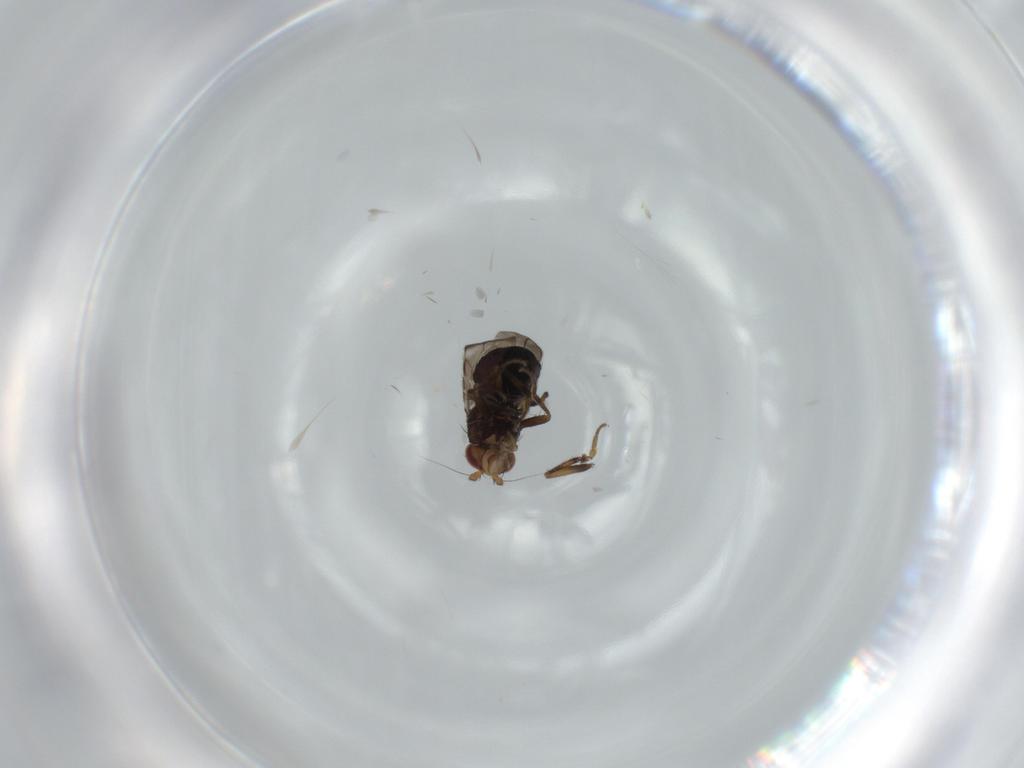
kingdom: Animalia
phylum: Arthropoda
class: Insecta
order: Diptera
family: Sphaeroceridae
